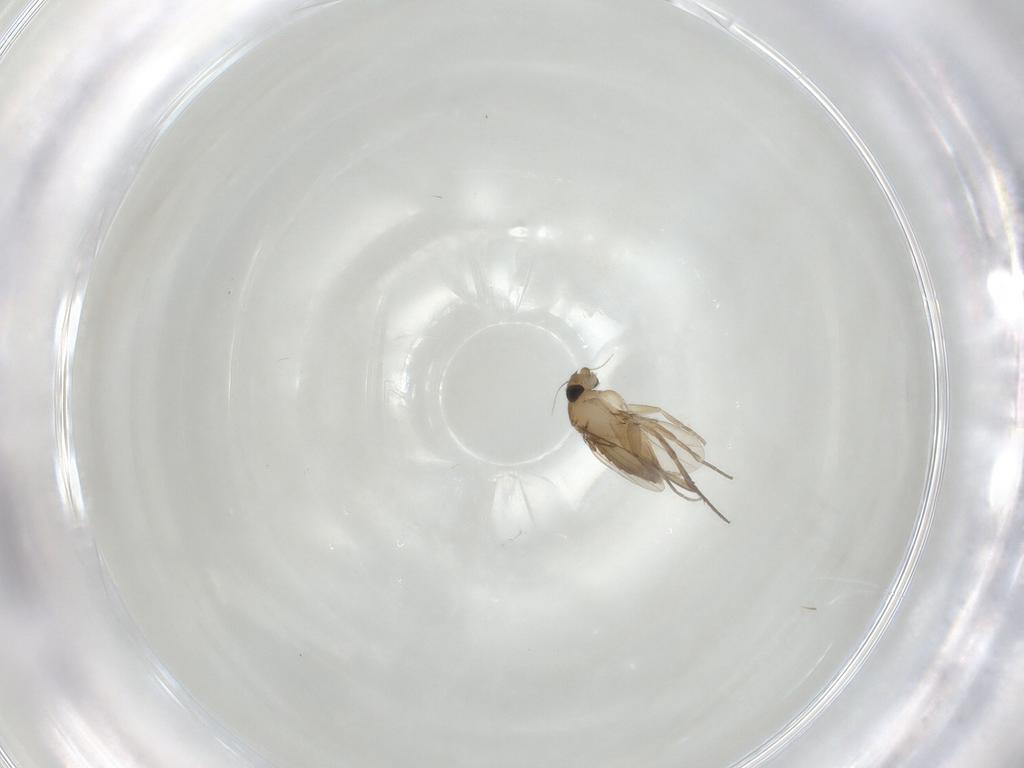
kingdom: Animalia
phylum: Arthropoda
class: Insecta
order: Diptera
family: Phoridae
